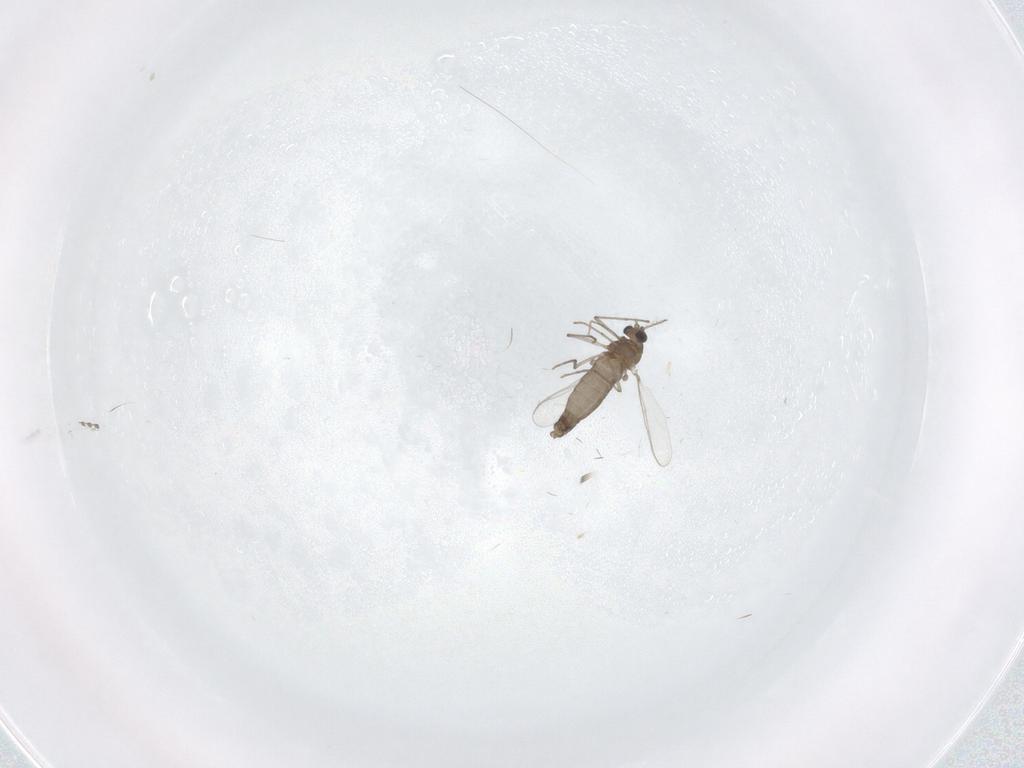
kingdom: Animalia
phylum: Arthropoda
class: Insecta
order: Diptera
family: Chironomidae
